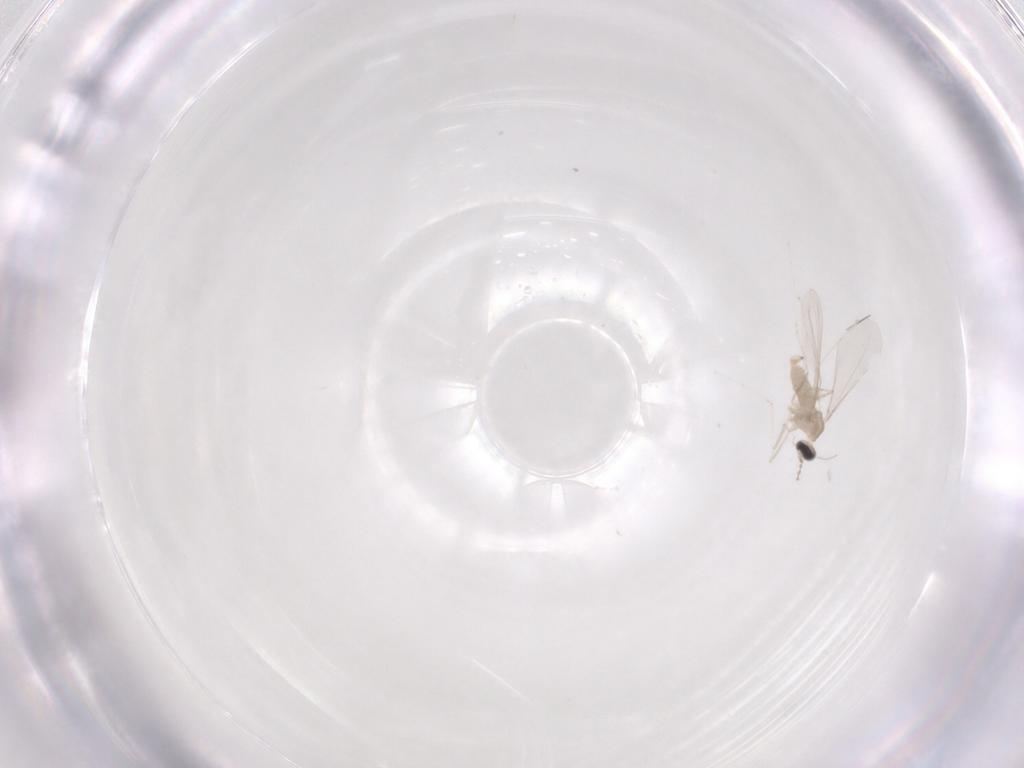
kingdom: Animalia
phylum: Arthropoda
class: Insecta
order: Diptera
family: Cecidomyiidae
